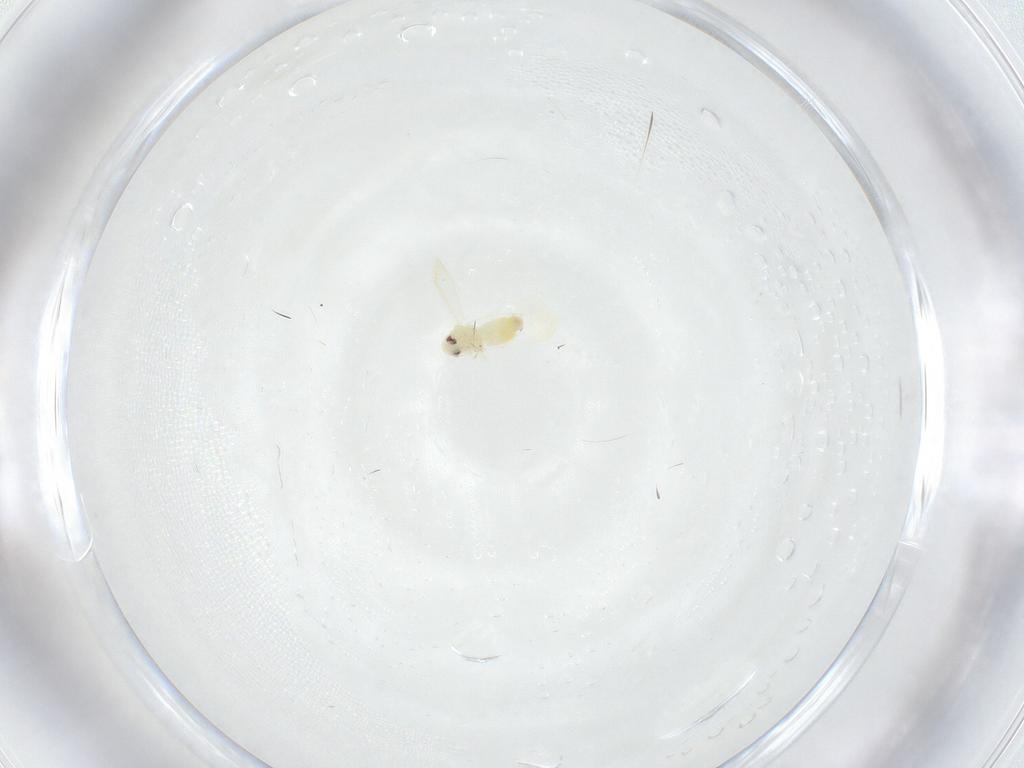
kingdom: Animalia
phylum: Arthropoda
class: Insecta
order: Hemiptera
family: Aleyrodidae
